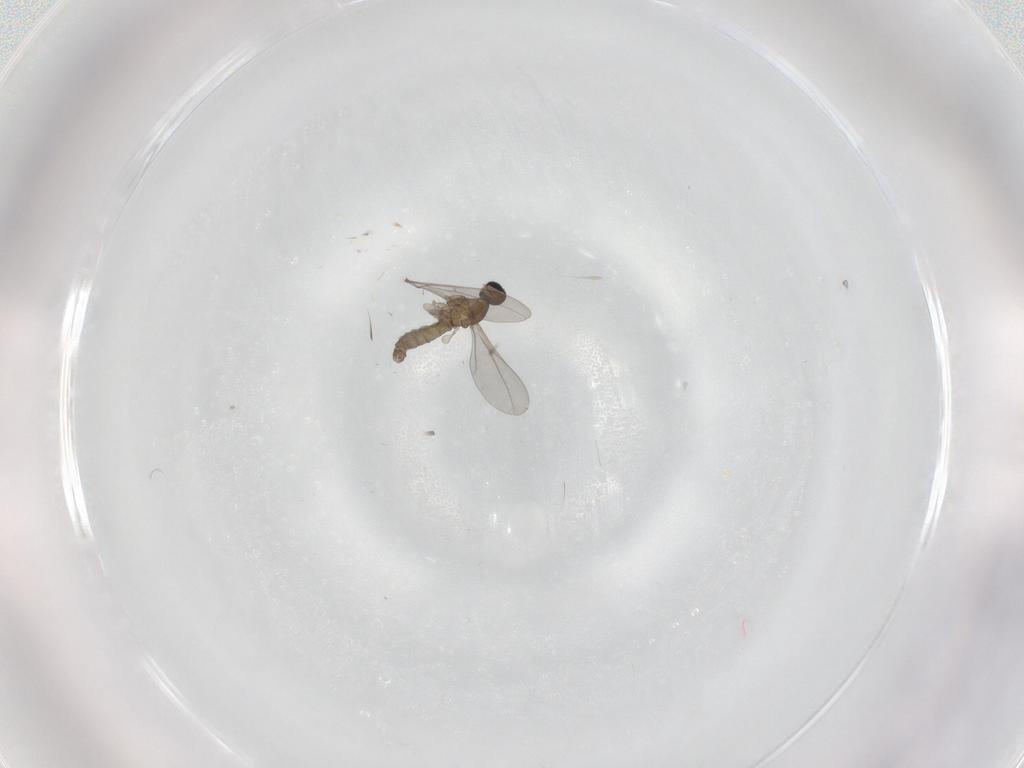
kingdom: Animalia
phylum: Arthropoda
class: Insecta
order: Diptera
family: Cecidomyiidae
